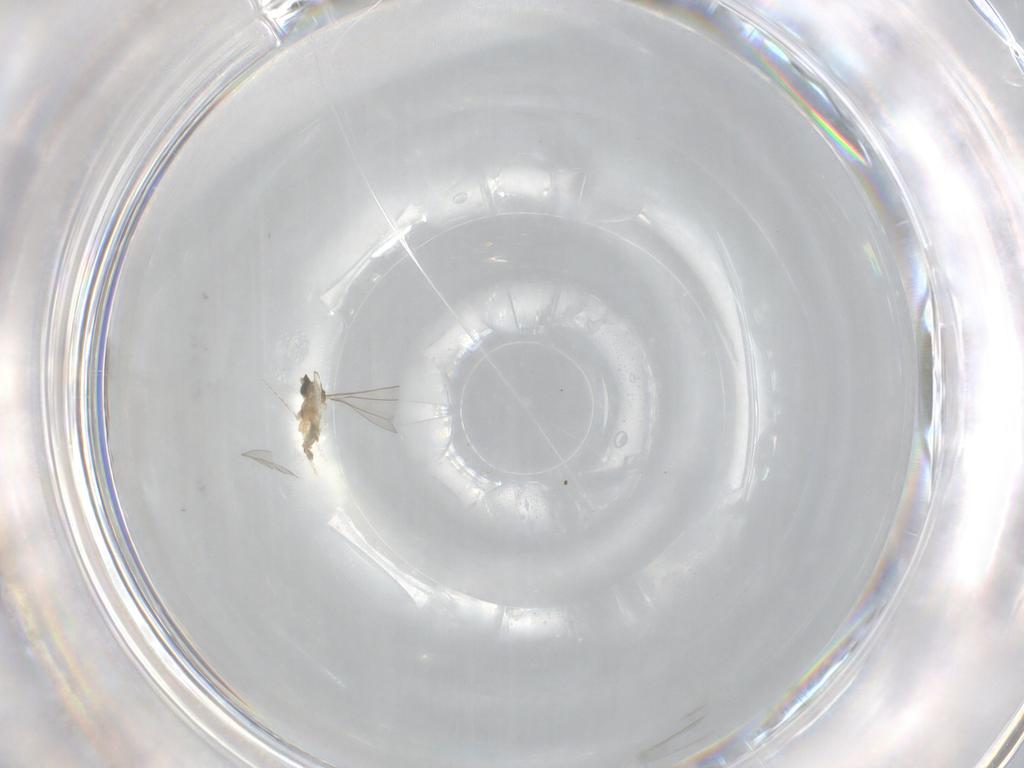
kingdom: Animalia
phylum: Arthropoda
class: Insecta
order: Diptera
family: Cecidomyiidae
